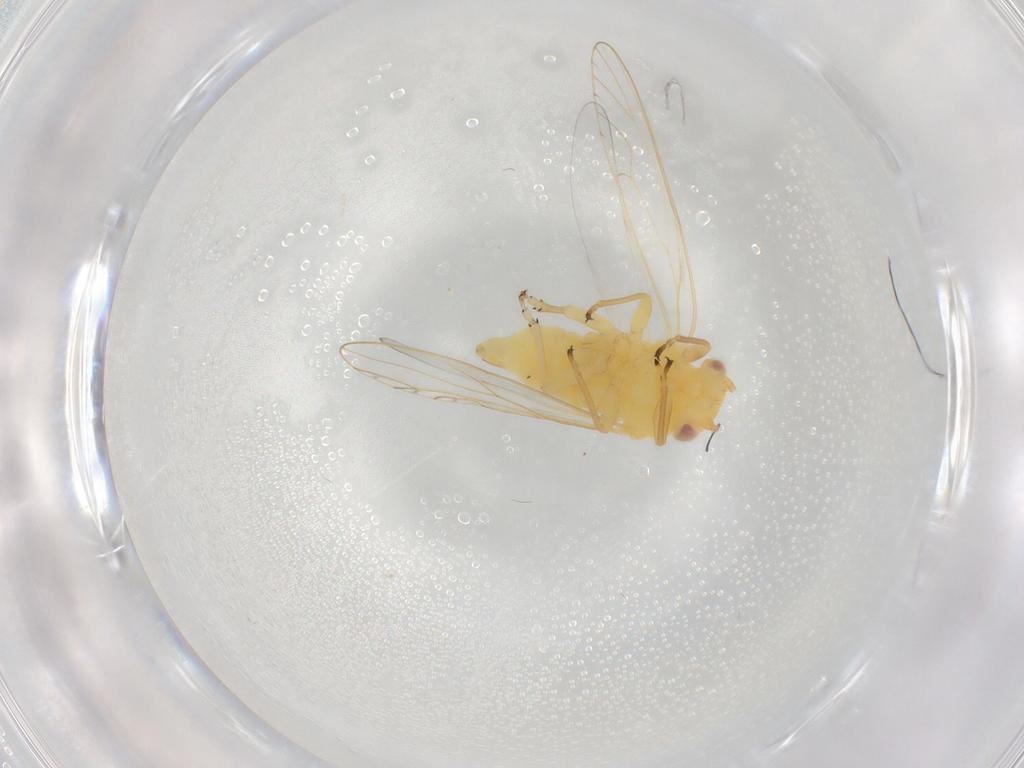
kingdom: Animalia
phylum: Arthropoda
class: Insecta
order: Hemiptera
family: Psyllidae
